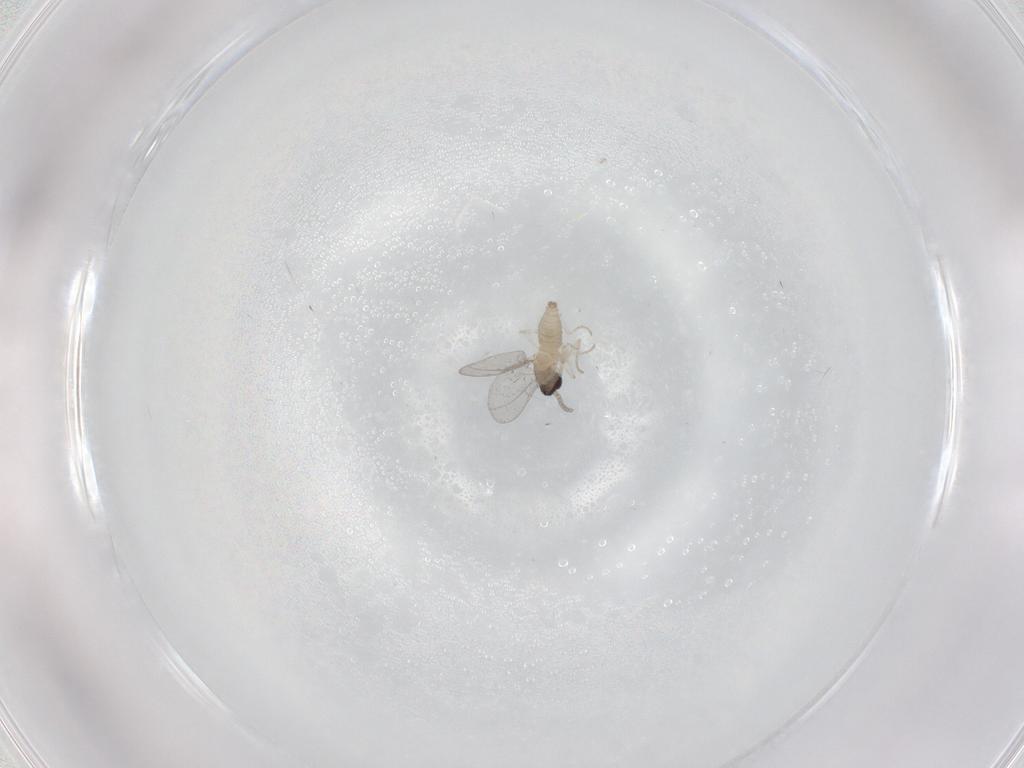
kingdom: Animalia
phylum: Arthropoda
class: Insecta
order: Diptera
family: Cecidomyiidae
